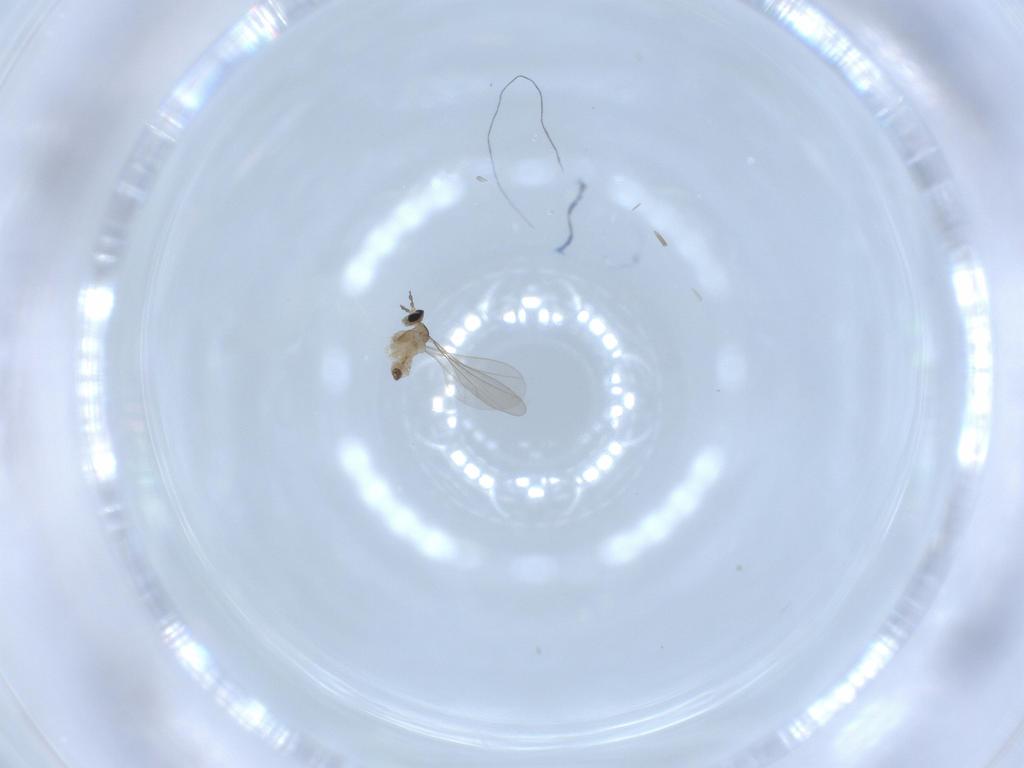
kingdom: Animalia
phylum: Arthropoda
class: Insecta
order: Diptera
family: Cecidomyiidae
